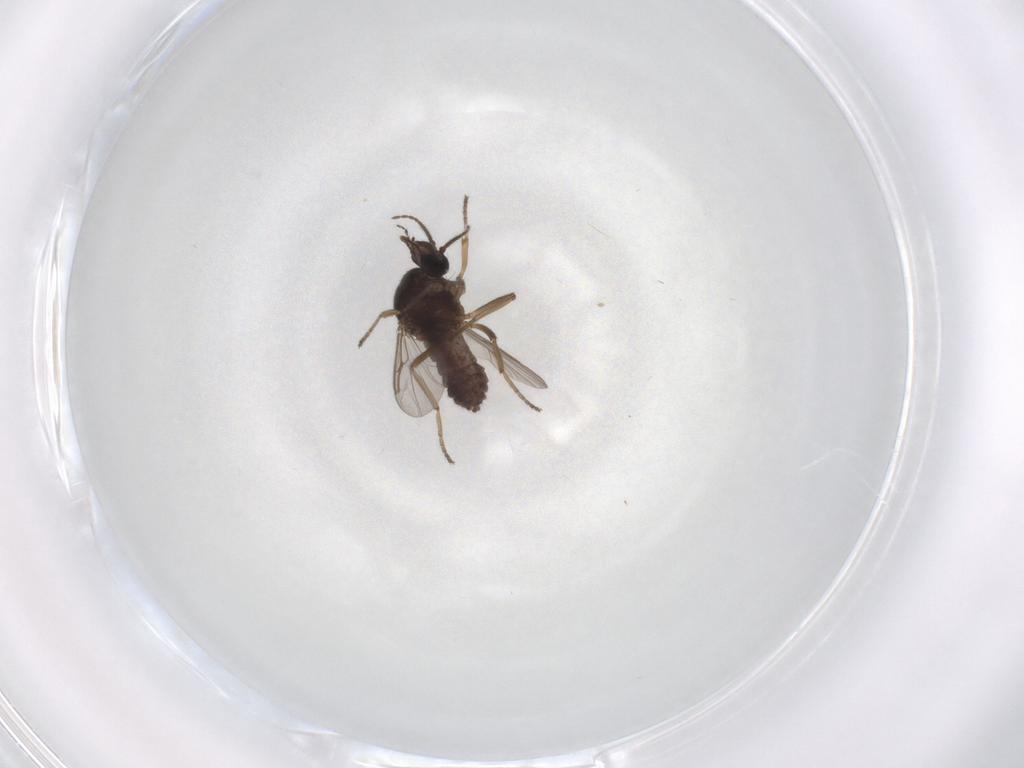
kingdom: Animalia
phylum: Arthropoda
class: Insecta
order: Diptera
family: Ceratopogonidae
